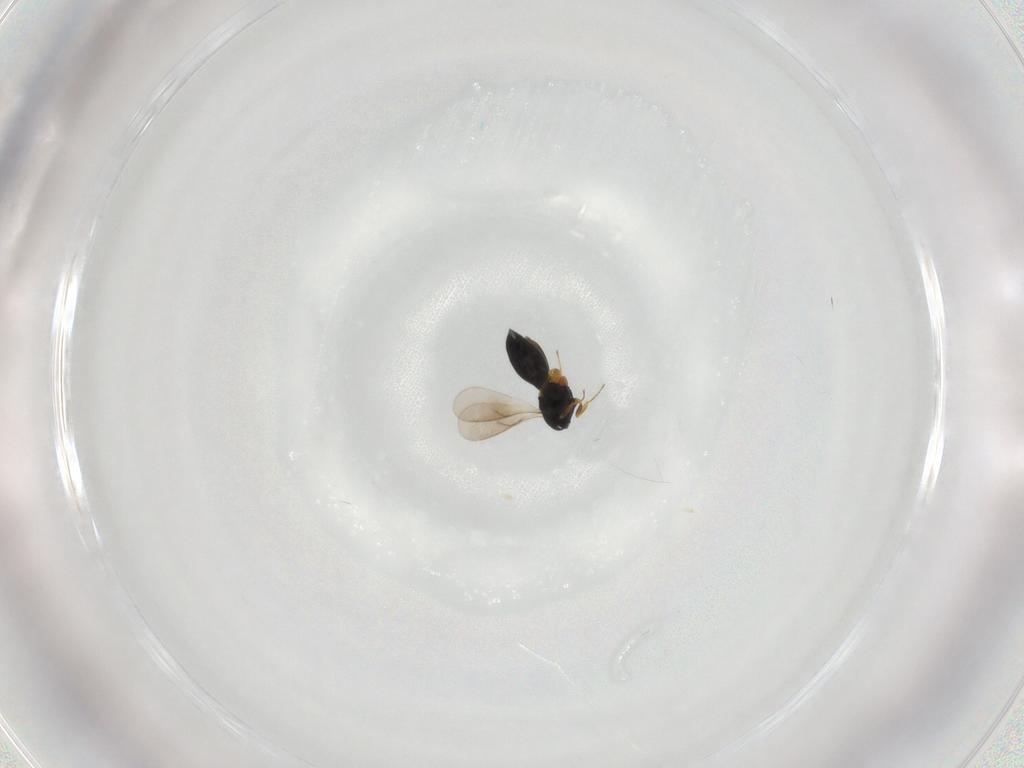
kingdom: Animalia
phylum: Arthropoda
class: Insecta
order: Hymenoptera
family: Scelionidae
